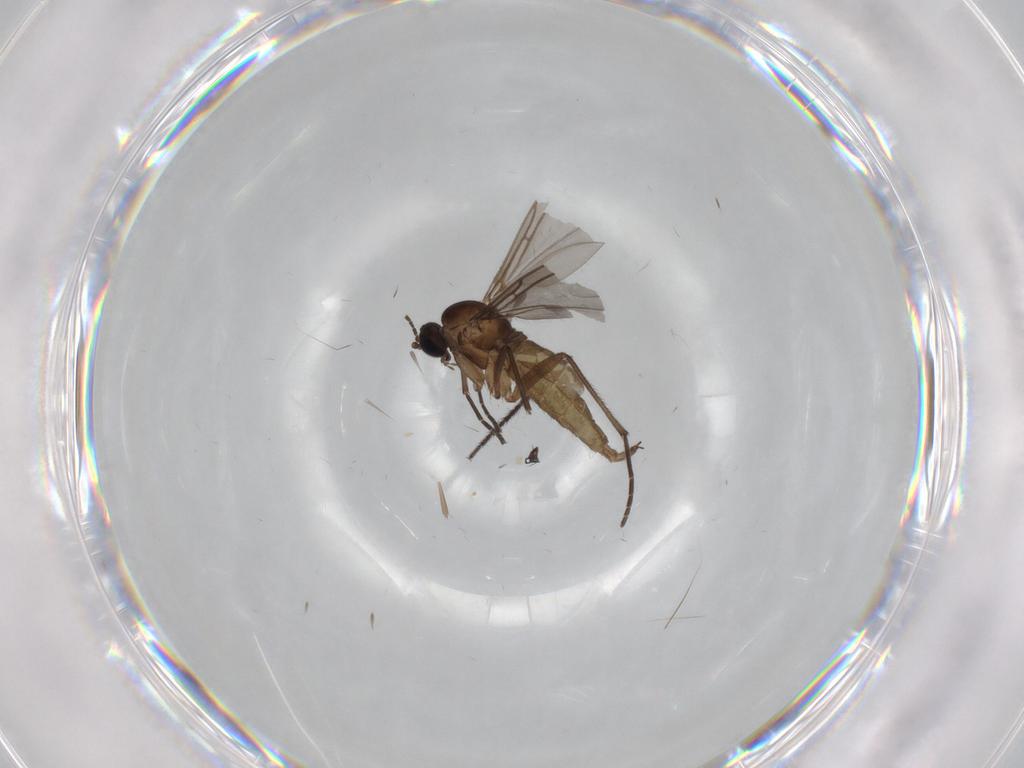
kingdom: Animalia
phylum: Arthropoda
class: Insecta
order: Diptera
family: Sciaridae
